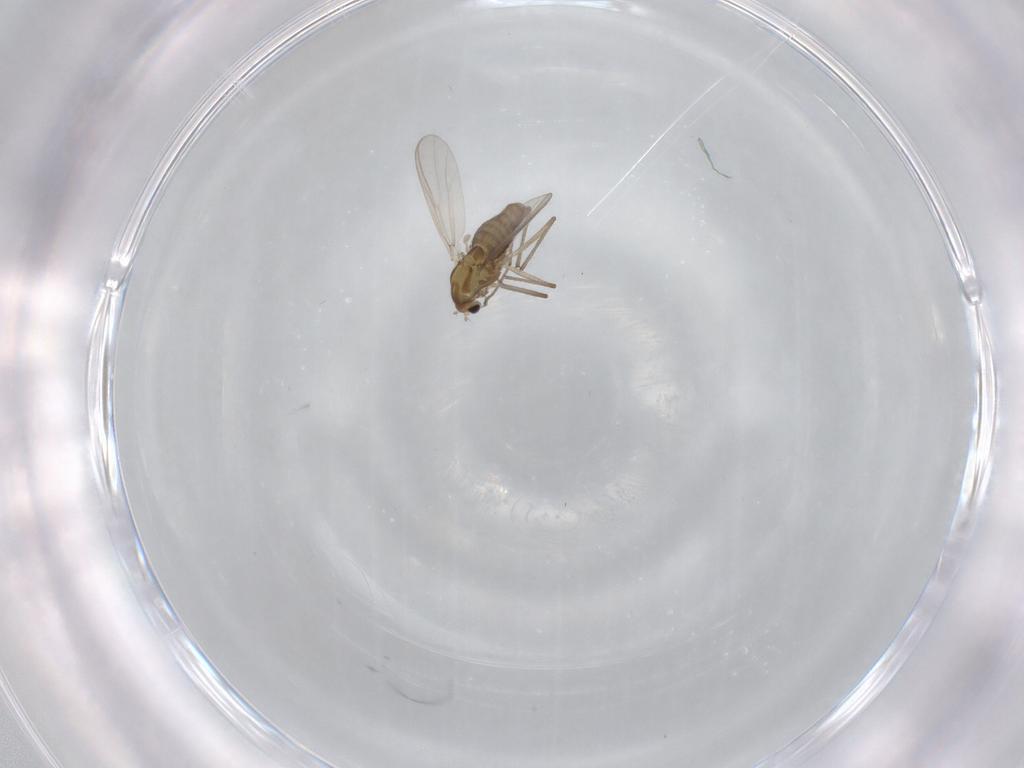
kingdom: Animalia
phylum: Arthropoda
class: Insecta
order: Diptera
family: Chironomidae
